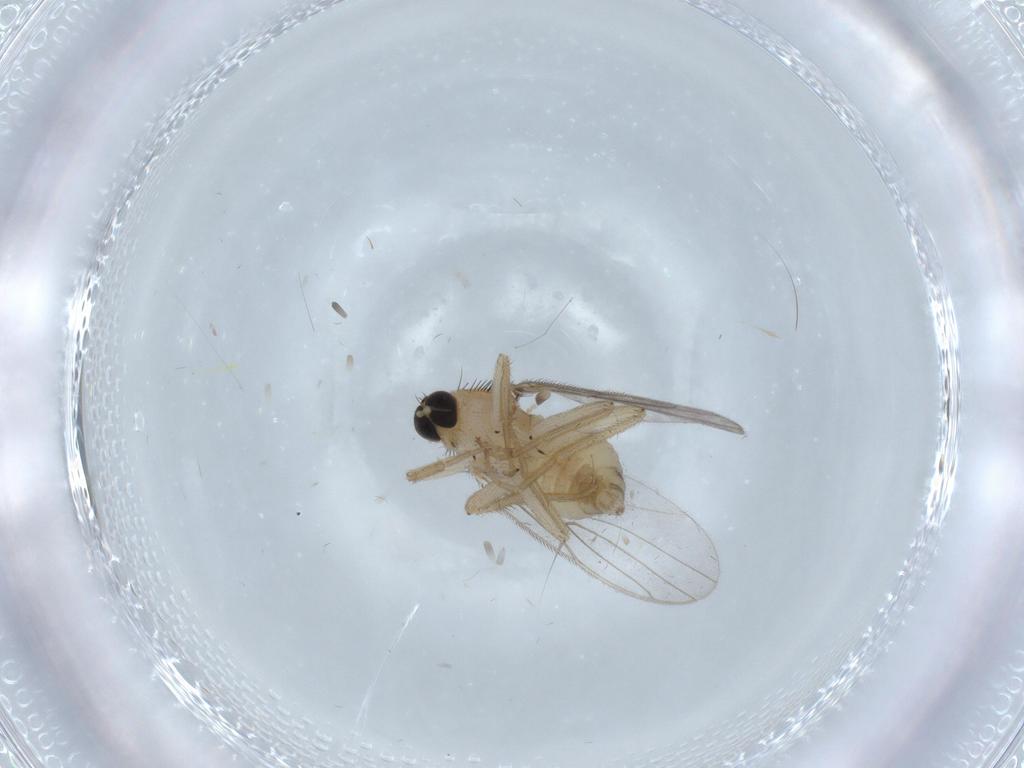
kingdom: Animalia
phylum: Arthropoda
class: Insecta
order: Diptera
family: Hybotidae
